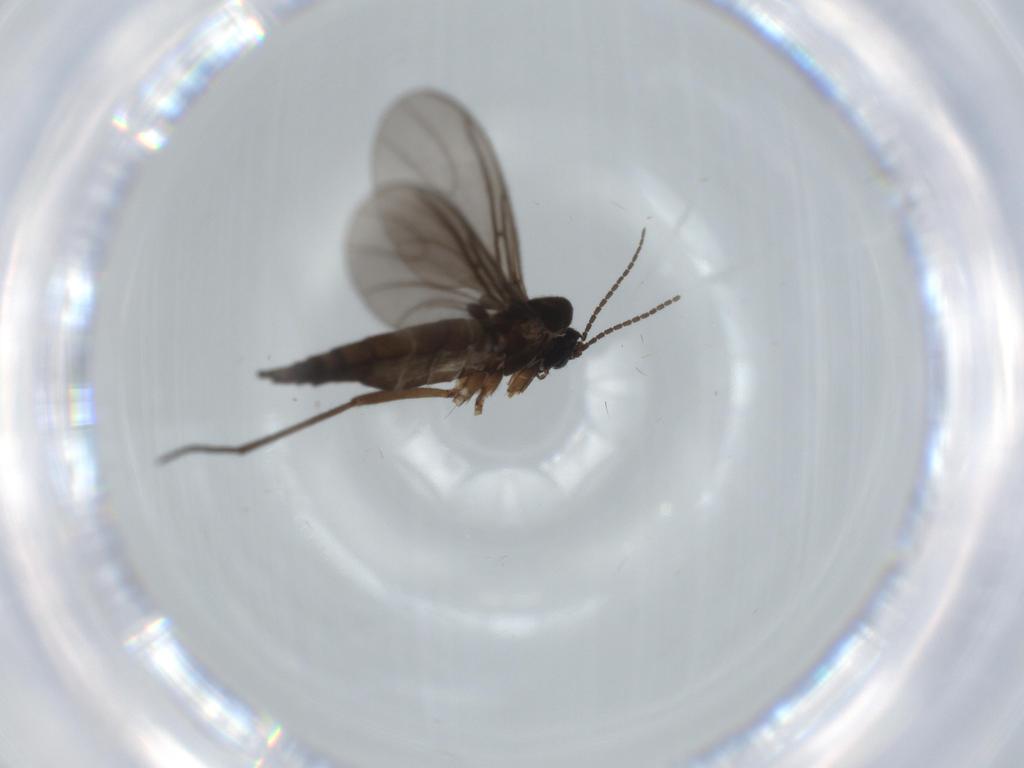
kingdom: Animalia
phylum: Arthropoda
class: Insecta
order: Diptera
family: Sciaridae
